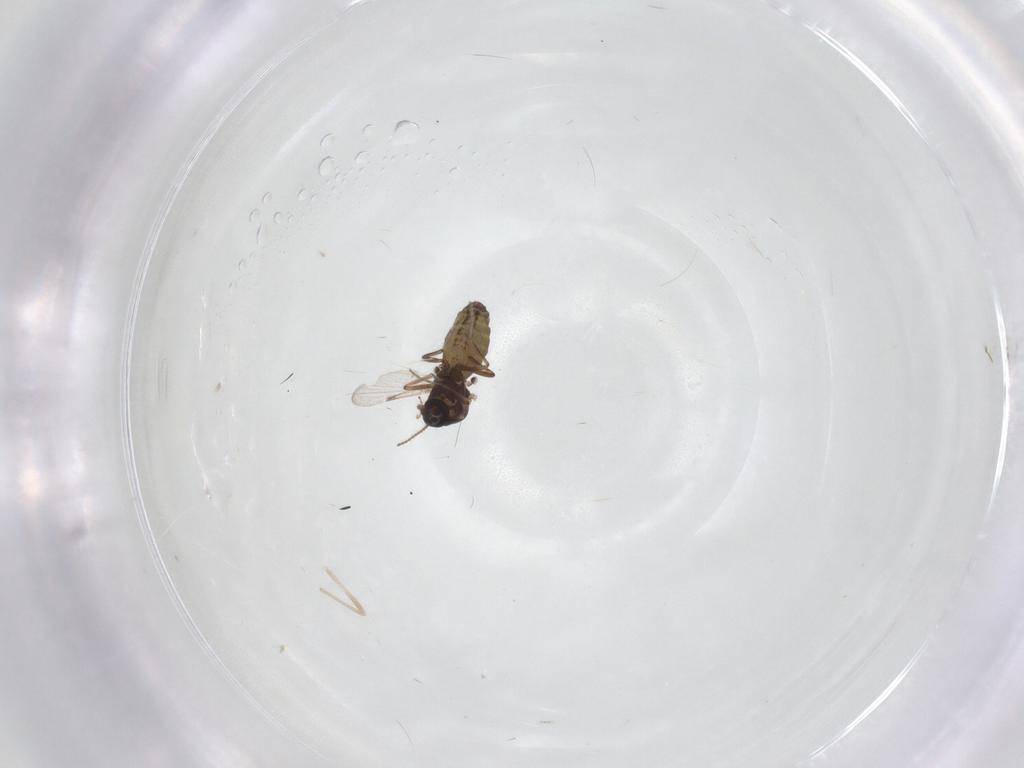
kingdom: Animalia
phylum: Arthropoda
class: Insecta
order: Diptera
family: Ceratopogonidae
